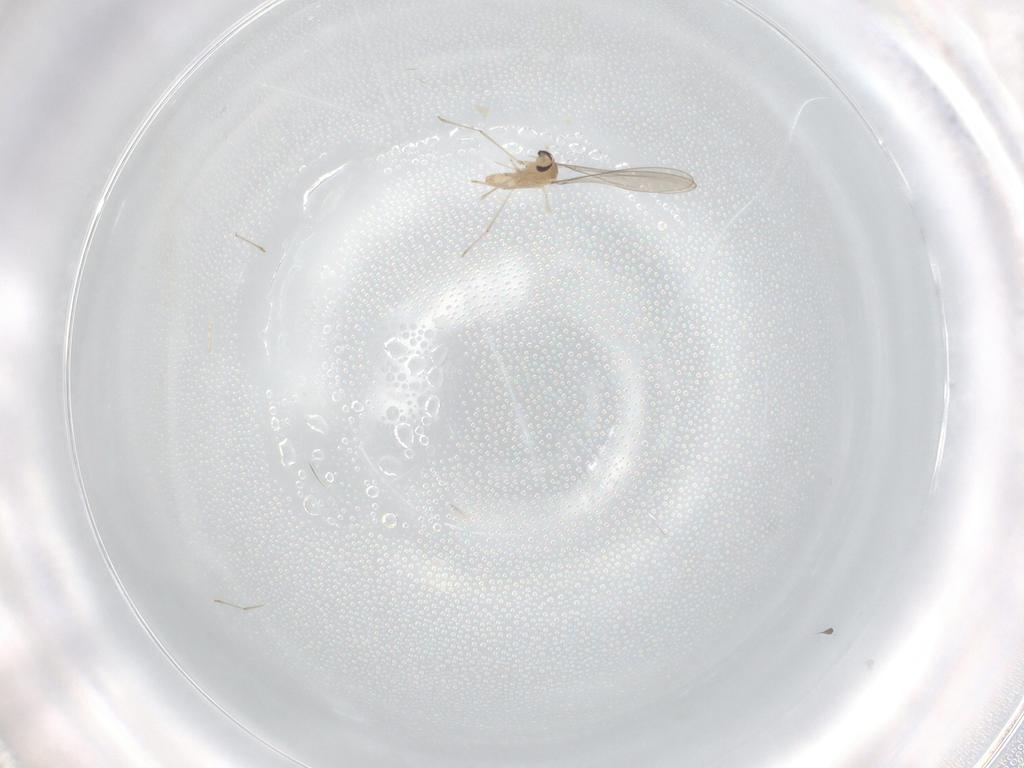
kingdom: Animalia
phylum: Arthropoda
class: Insecta
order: Diptera
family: Cecidomyiidae
